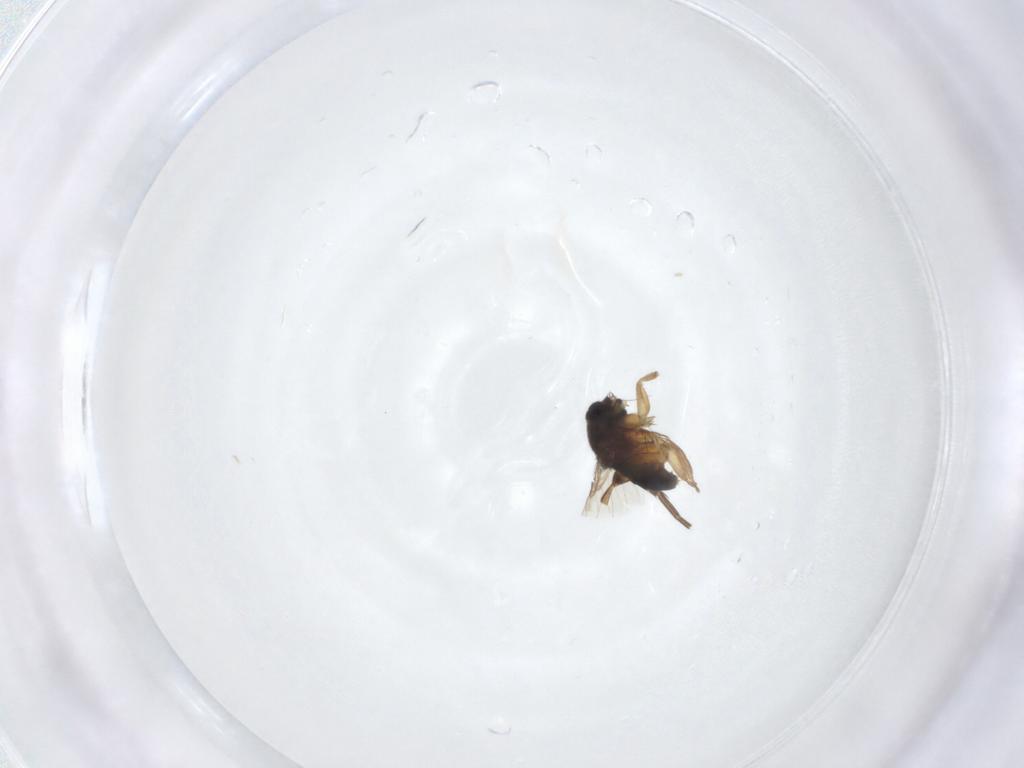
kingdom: Animalia
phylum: Arthropoda
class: Insecta
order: Diptera
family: Phoridae
